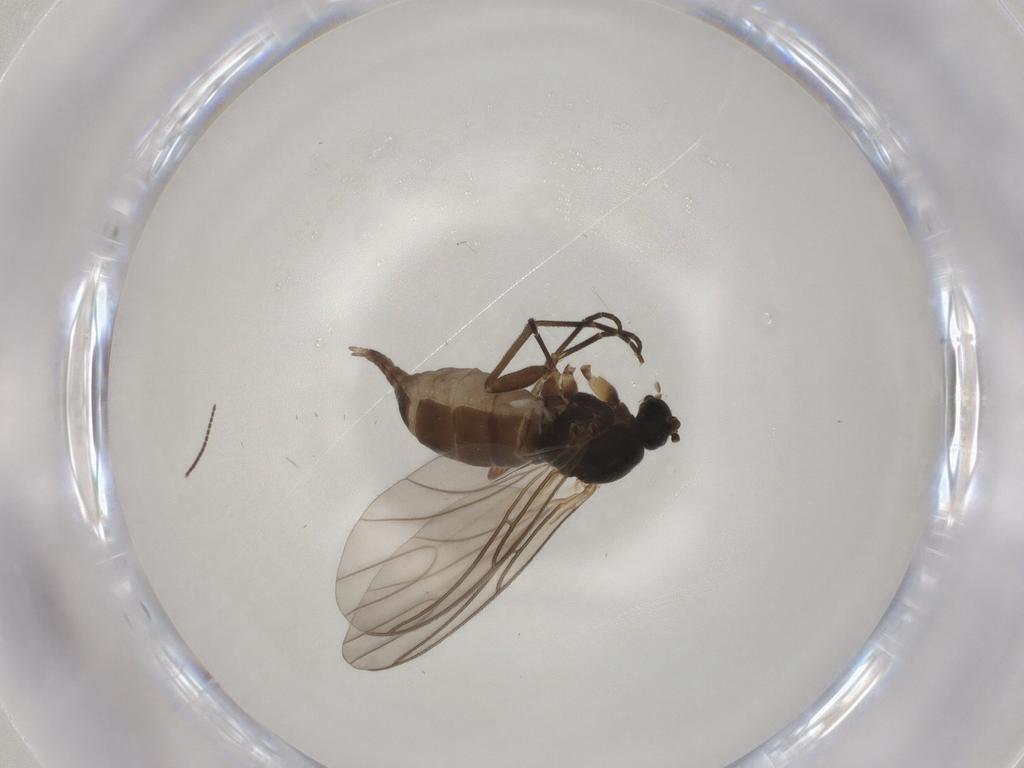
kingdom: Animalia
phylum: Arthropoda
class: Insecta
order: Diptera
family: Sciaridae
